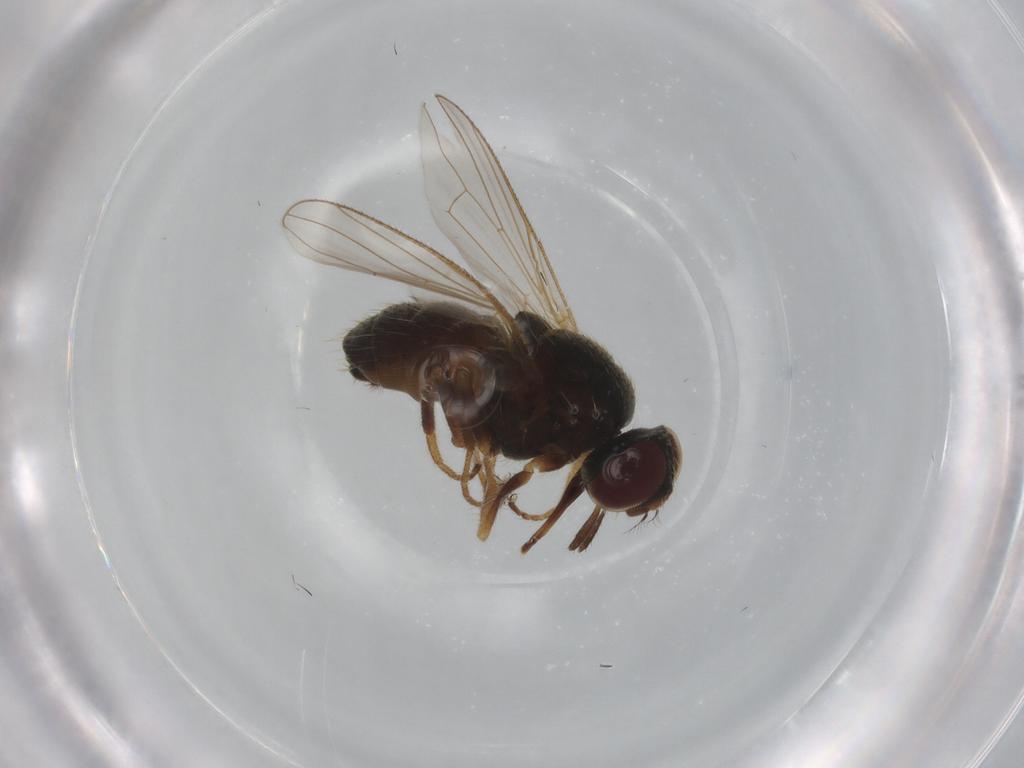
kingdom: Animalia
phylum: Arthropoda
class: Insecta
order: Diptera
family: Muscidae
